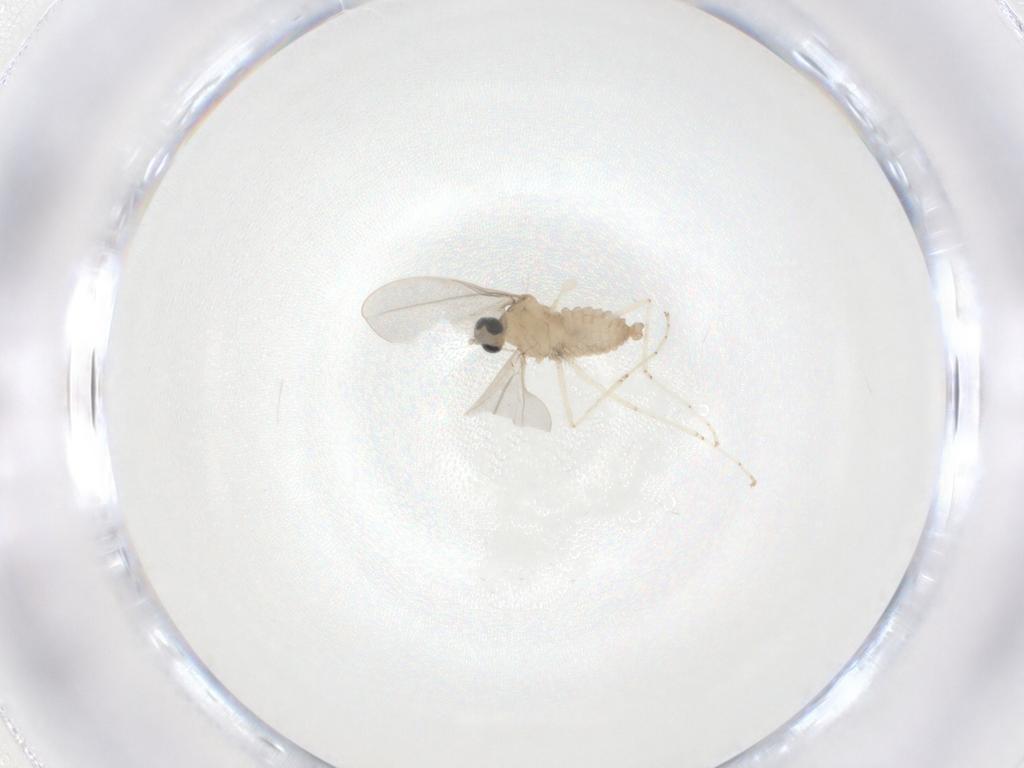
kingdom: Animalia
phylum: Arthropoda
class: Insecta
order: Diptera
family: Cecidomyiidae
